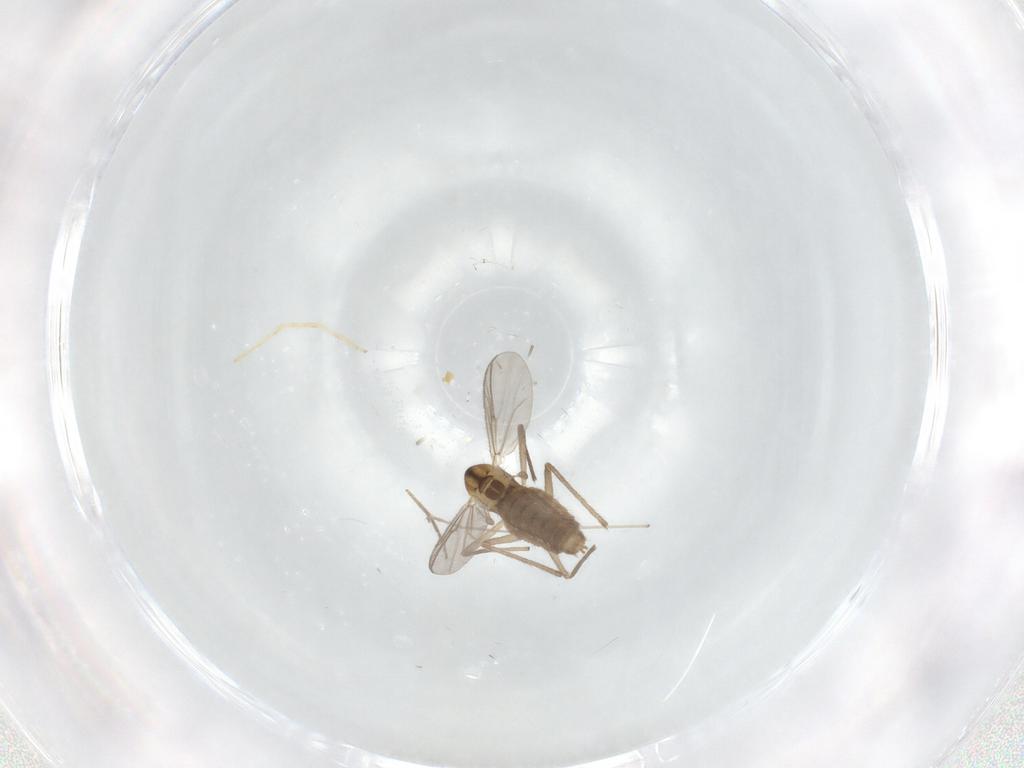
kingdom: Animalia
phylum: Arthropoda
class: Insecta
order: Diptera
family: Chironomidae
